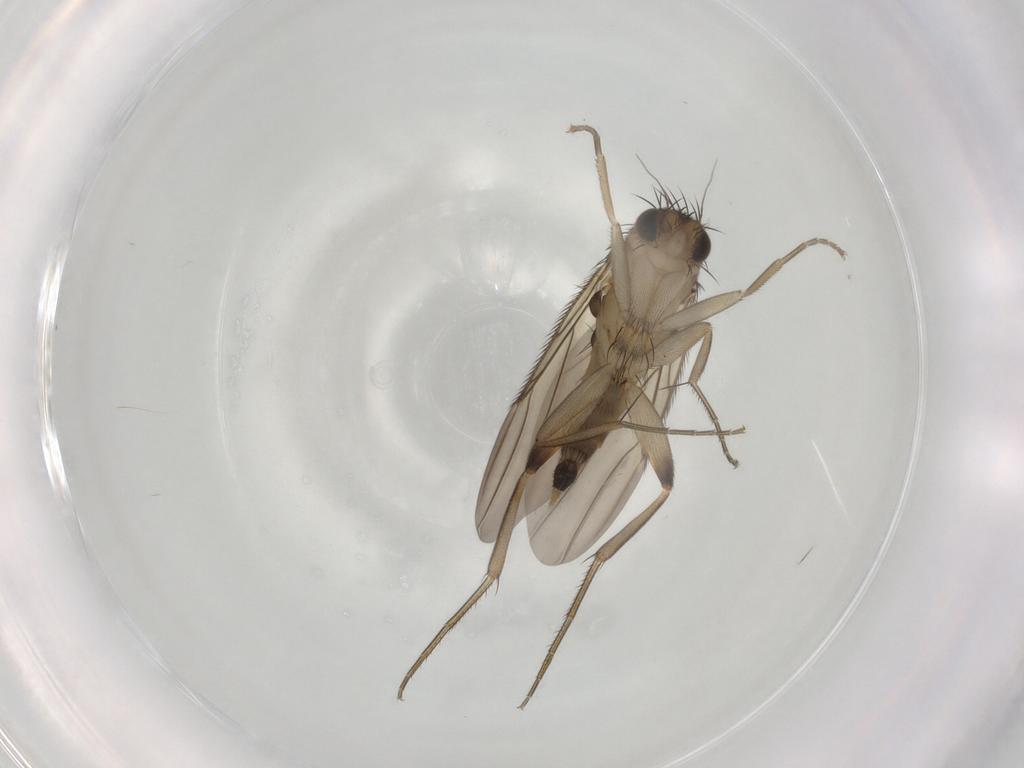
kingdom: Animalia
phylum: Arthropoda
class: Insecta
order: Diptera
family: Phoridae
